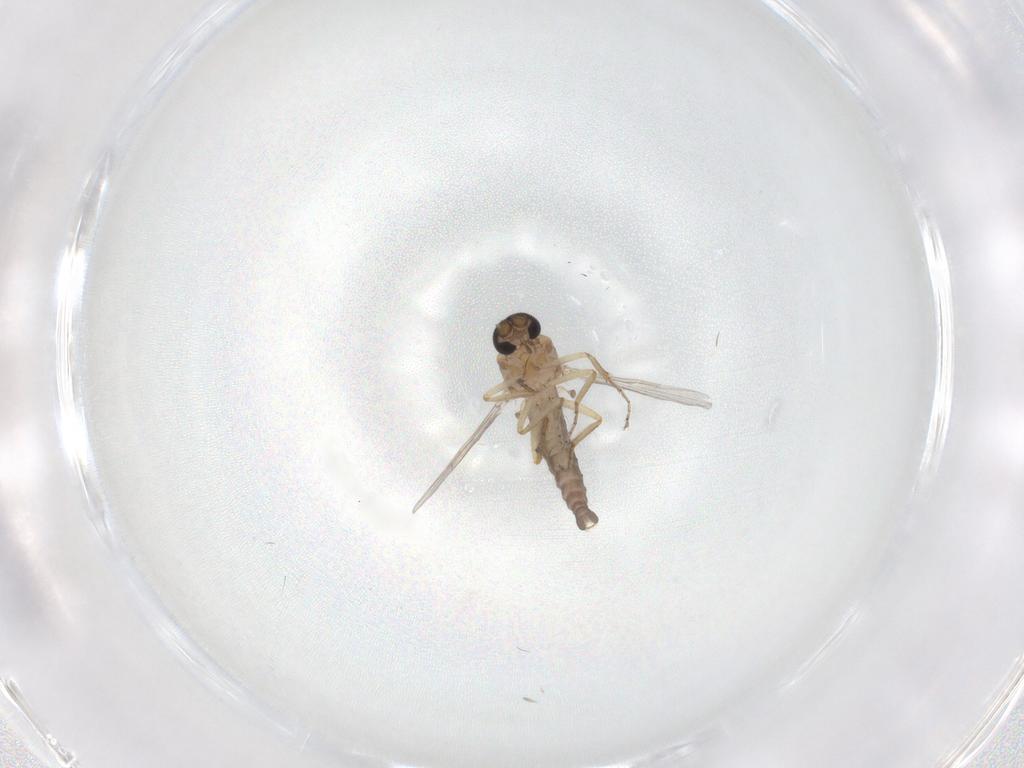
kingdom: Animalia
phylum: Arthropoda
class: Insecta
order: Diptera
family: Ceratopogonidae
